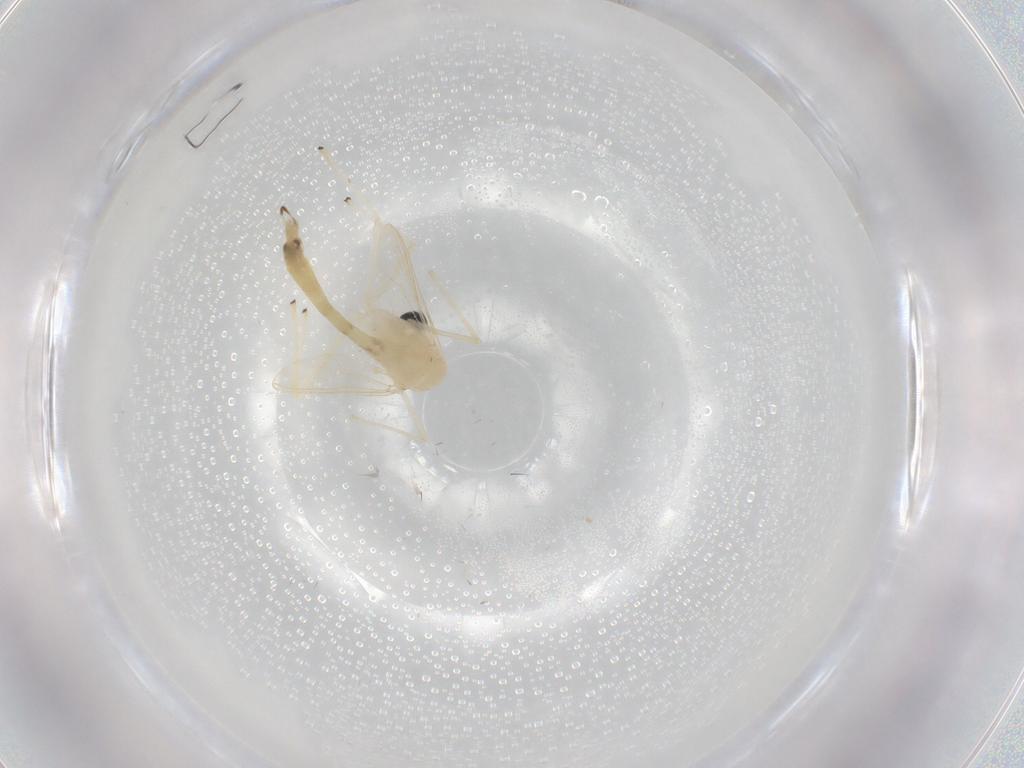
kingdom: Animalia
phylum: Arthropoda
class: Insecta
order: Diptera
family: Chironomidae
